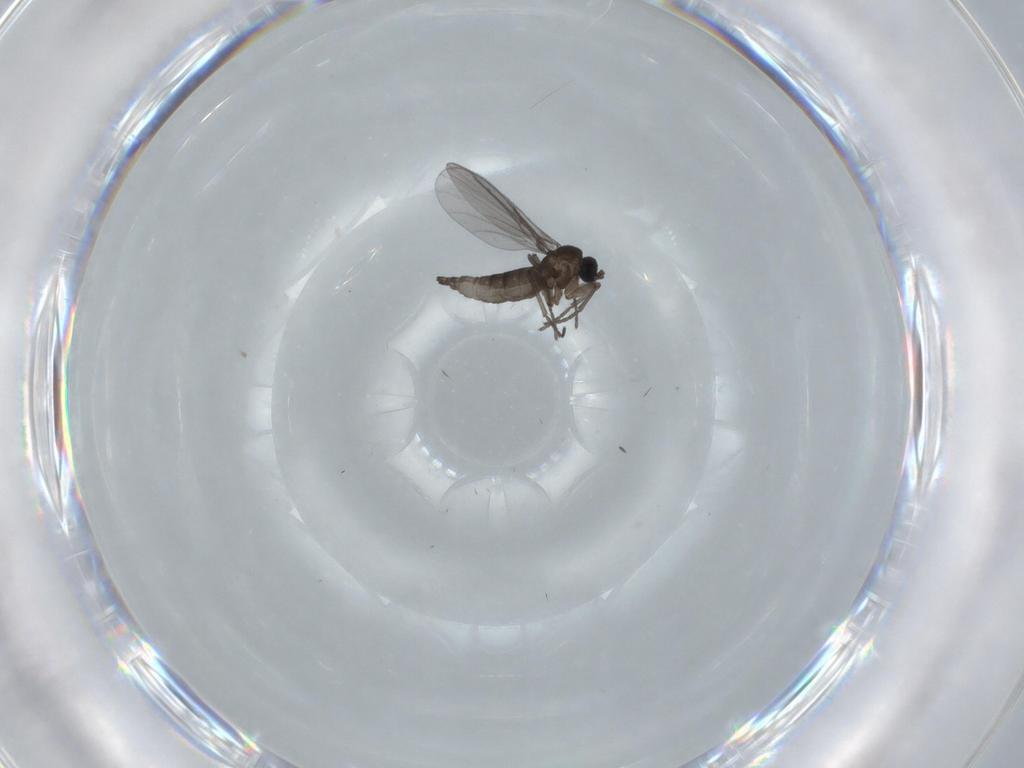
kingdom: Animalia
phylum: Arthropoda
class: Insecta
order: Diptera
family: Cecidomyiidae
